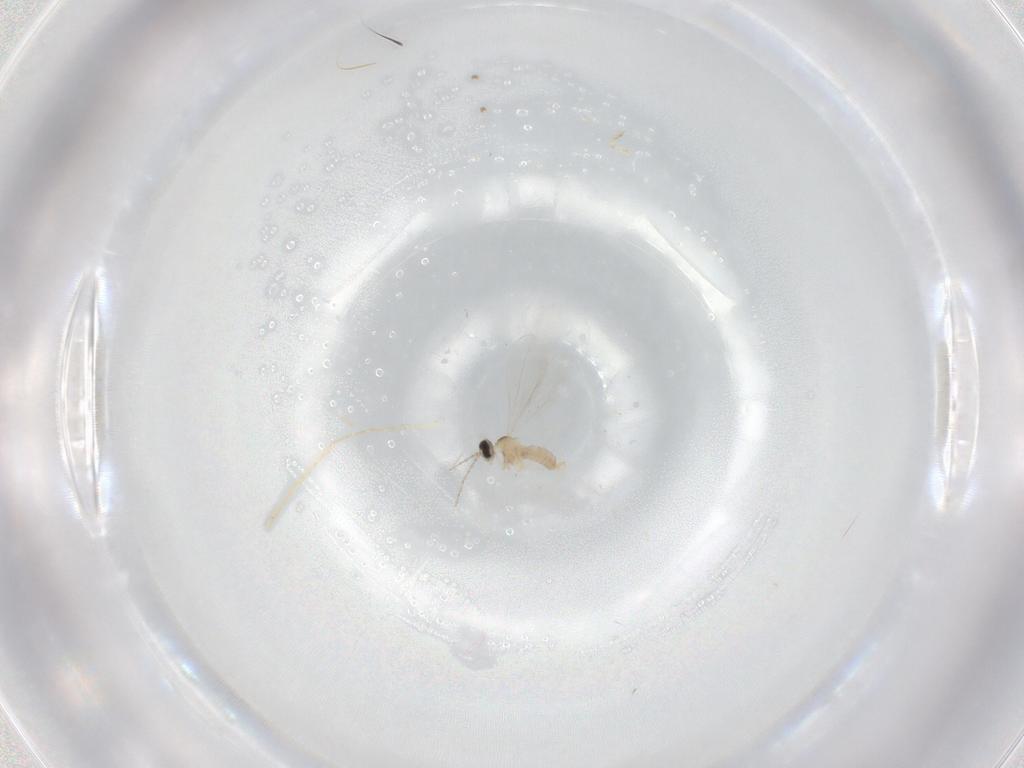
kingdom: Animalia
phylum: Arthropoda
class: Insecta
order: Diptera
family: Cecidomyiidae
